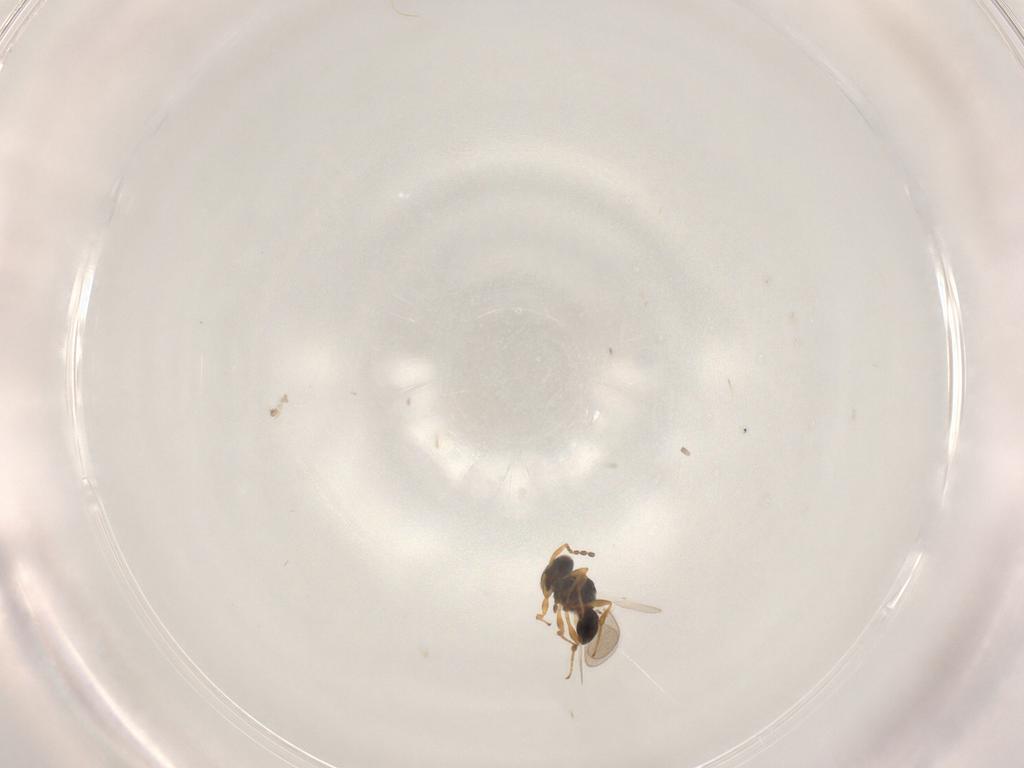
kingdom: Animalia
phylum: Arthropoda
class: Insecta
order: Hymenoptera
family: Platygastridae
